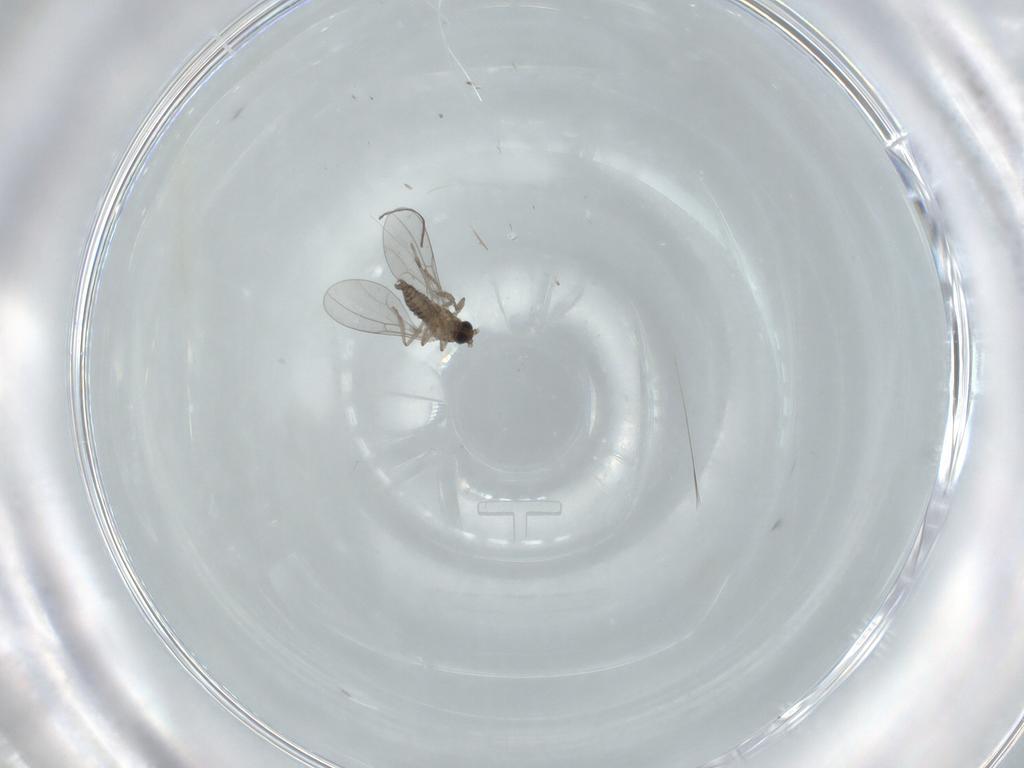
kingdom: Animalia
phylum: Arthropoda
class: Insecta
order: Diptera
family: Cecidomyiidae
